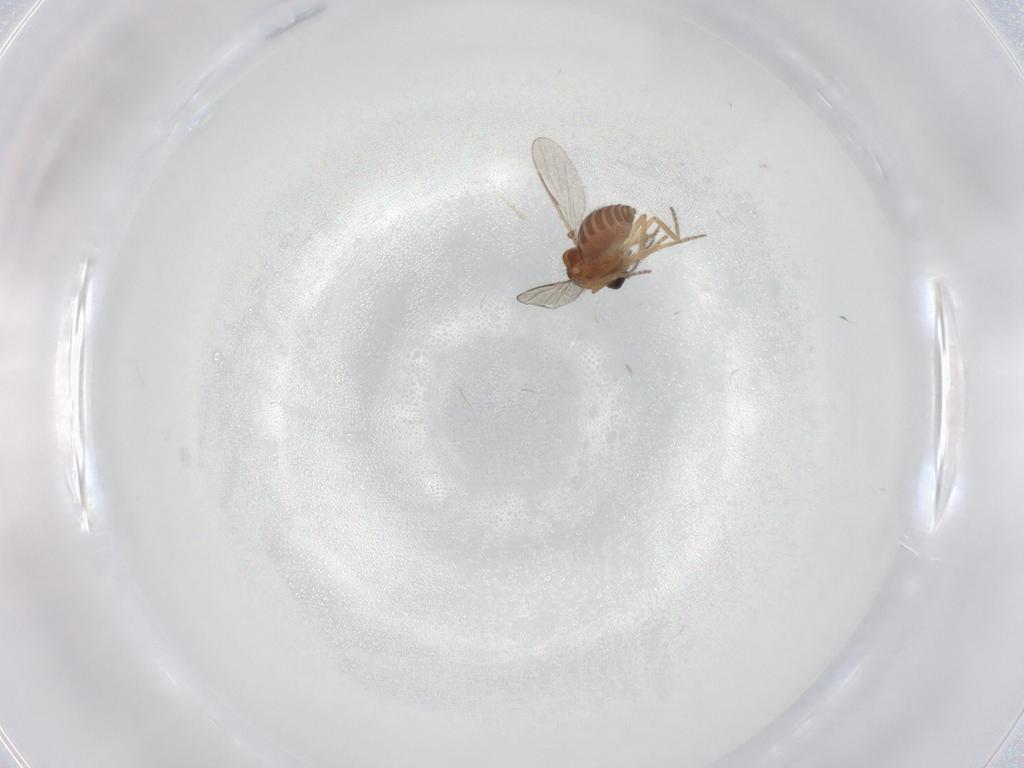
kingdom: Animalia
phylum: Arthropoda
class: Insecta
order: Diptera
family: Ceratopogonidae
